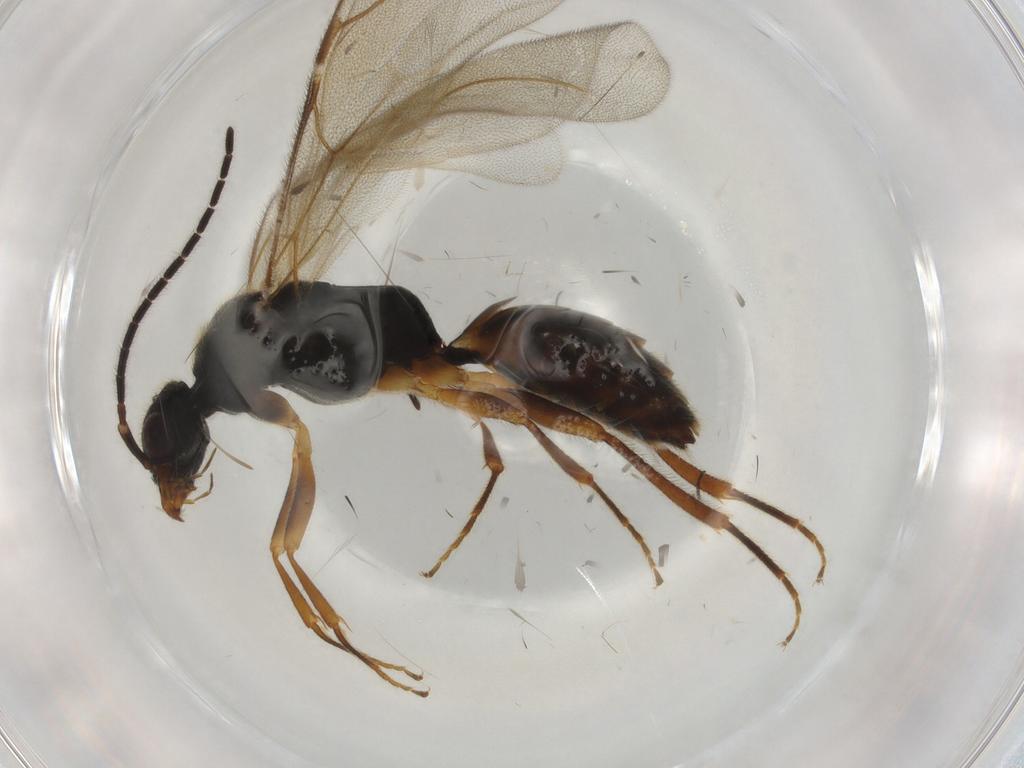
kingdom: Animalia
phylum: Arthropoda
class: Insecta
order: Hymenoptera
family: Bethylidae
